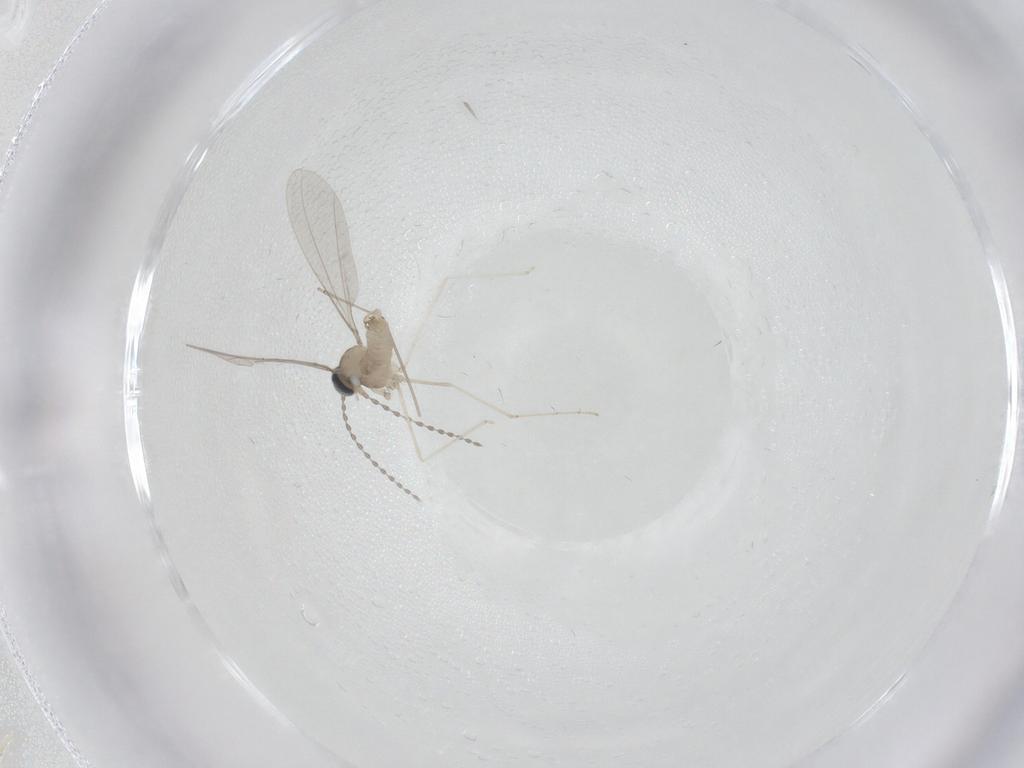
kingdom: Animalia
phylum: Arthropoda
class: Insecta
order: Diptera
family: Cecidomyiidae
